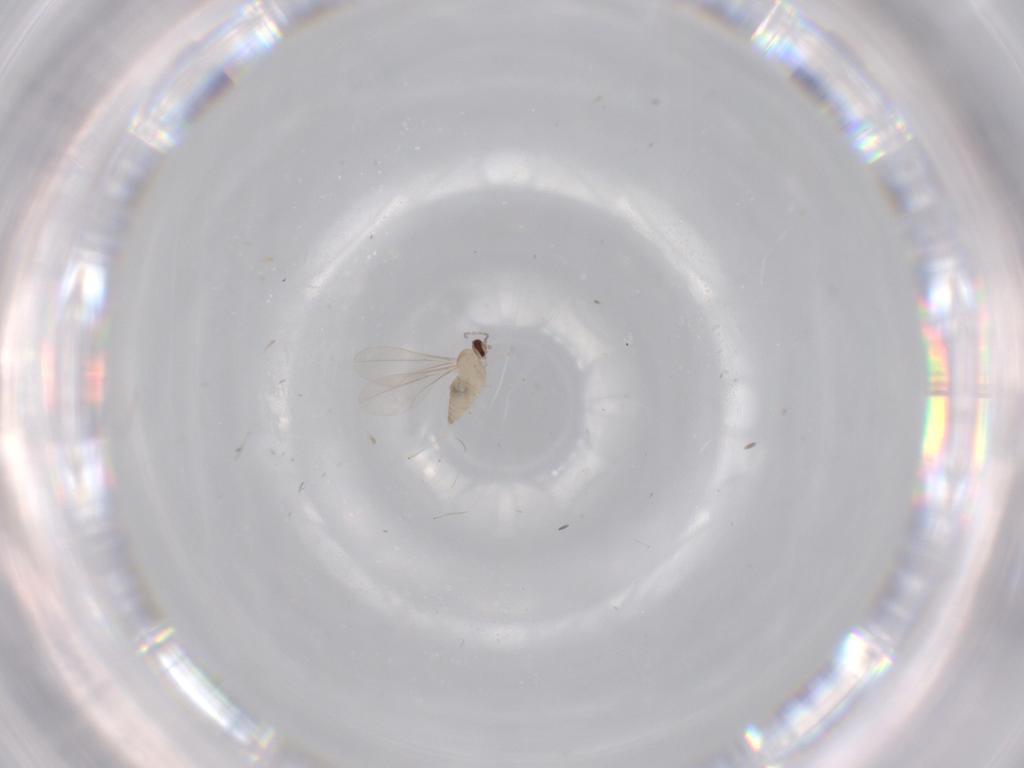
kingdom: Animalia
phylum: Arthropoda
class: Insecta
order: Diptera
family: Cecidomyiidae
